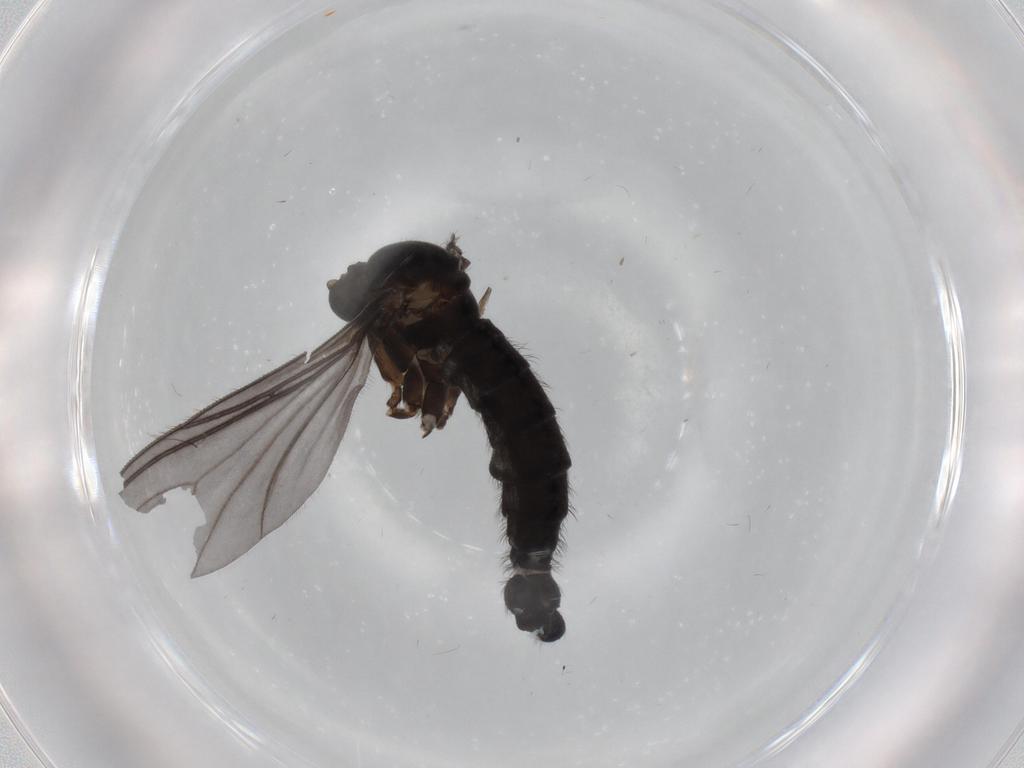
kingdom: Animalia
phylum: Arthropoda
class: Insecta
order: Diptera
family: Sciaridae
